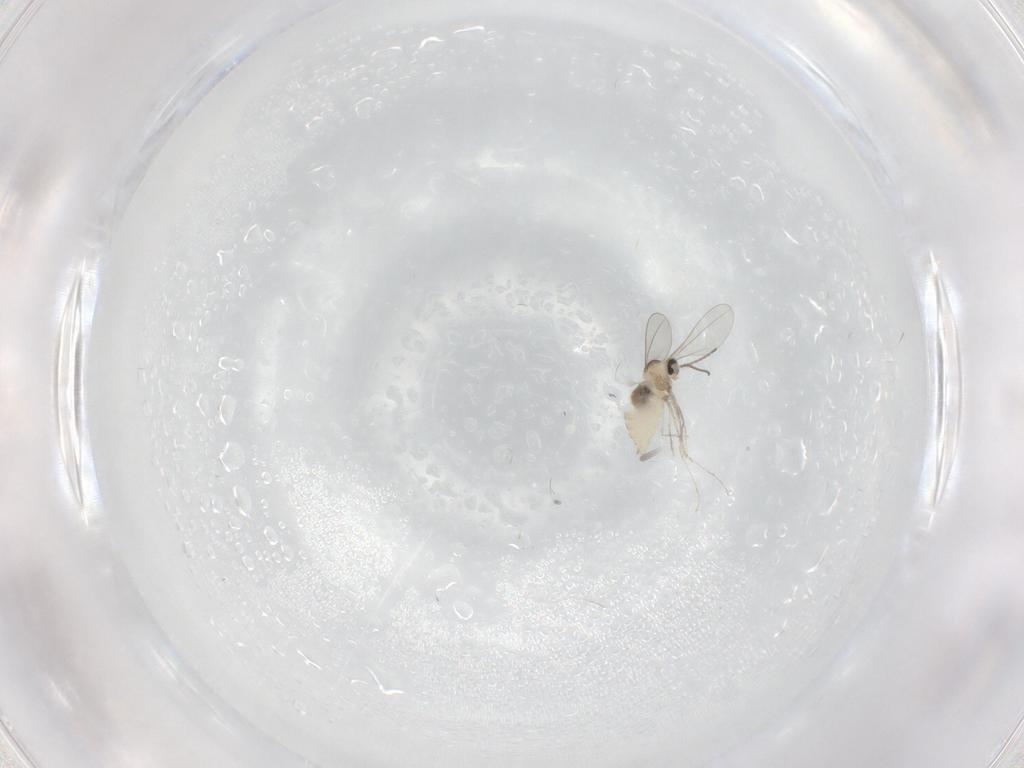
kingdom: Animalia
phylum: Arthropoda
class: Insecta
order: Diptera
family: Cecidomyiidae
